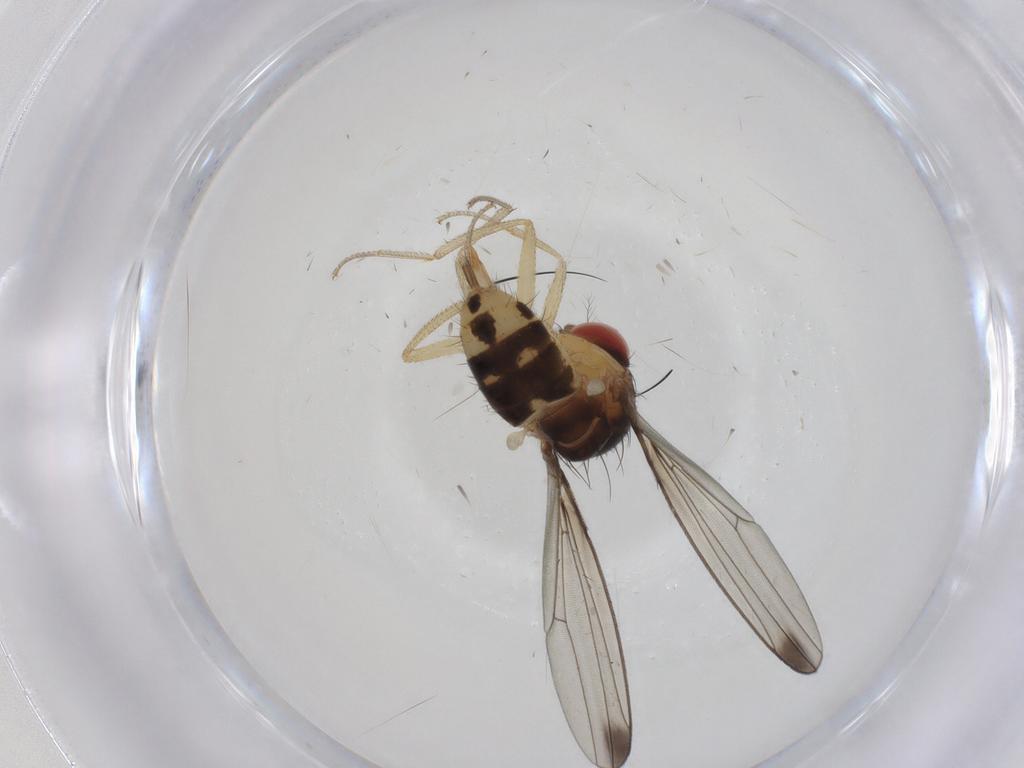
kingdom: Animalia
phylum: Arthropoda
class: Insecta
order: Diptera
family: Drosophilidae
